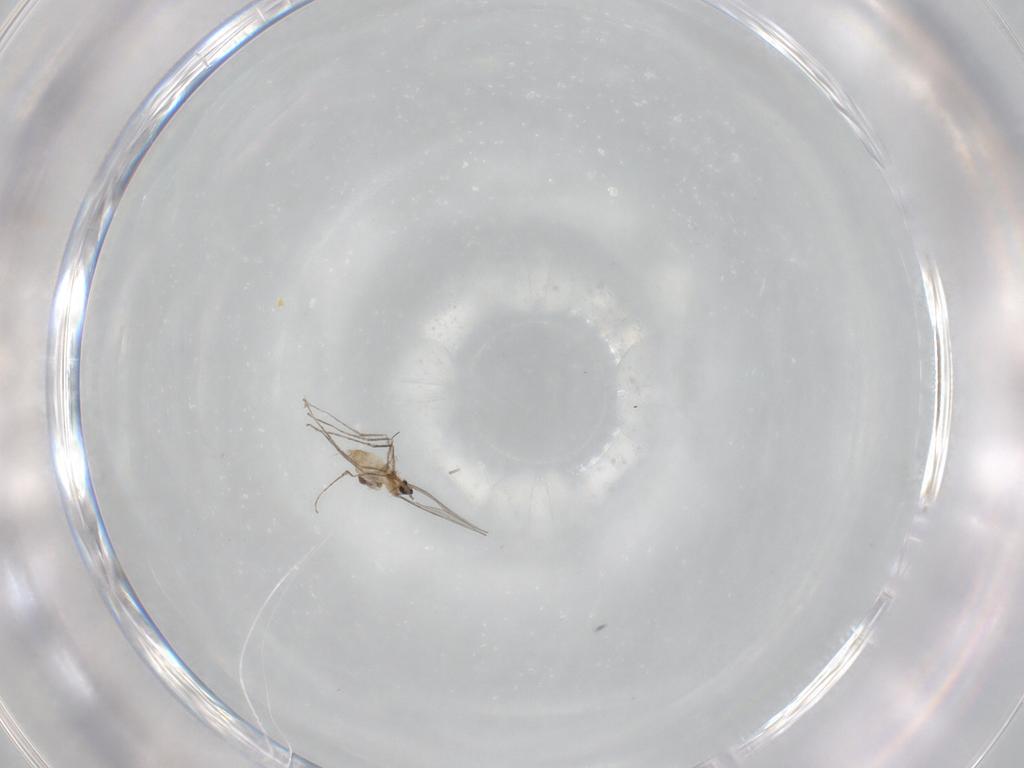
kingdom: Animalia
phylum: Arthropoda
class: Insecta
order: Diptera
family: Cecidomyiidae
